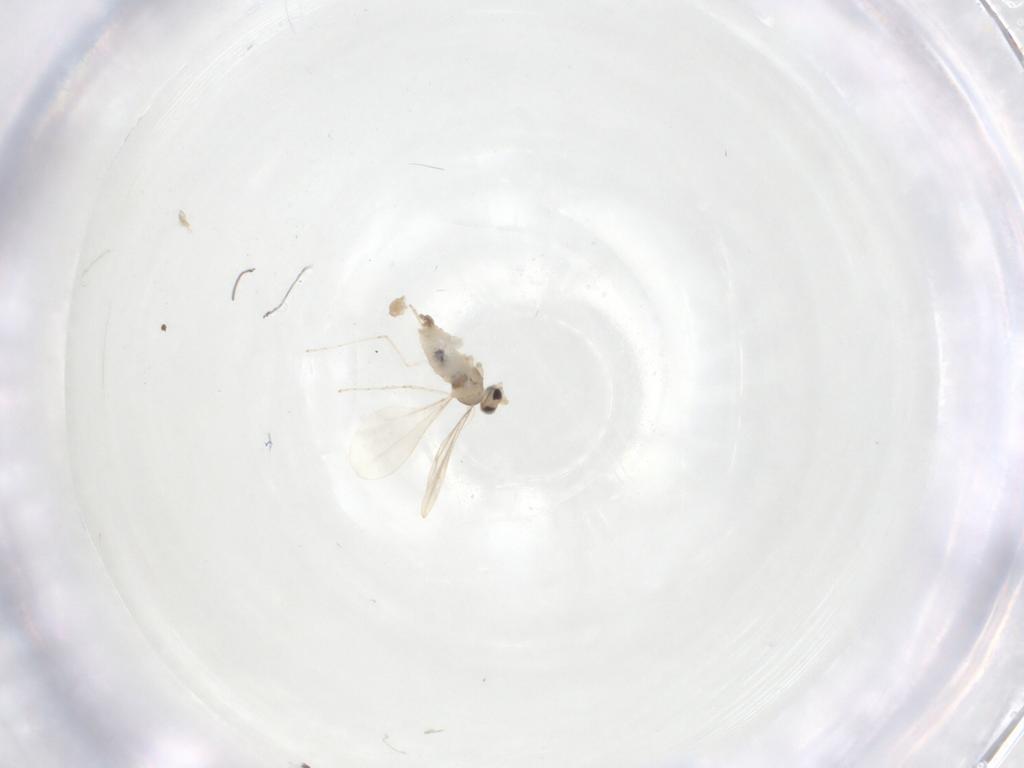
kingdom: Animalia
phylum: Arthropoda
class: Insecta
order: Diptera
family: Cecidomyiidae
